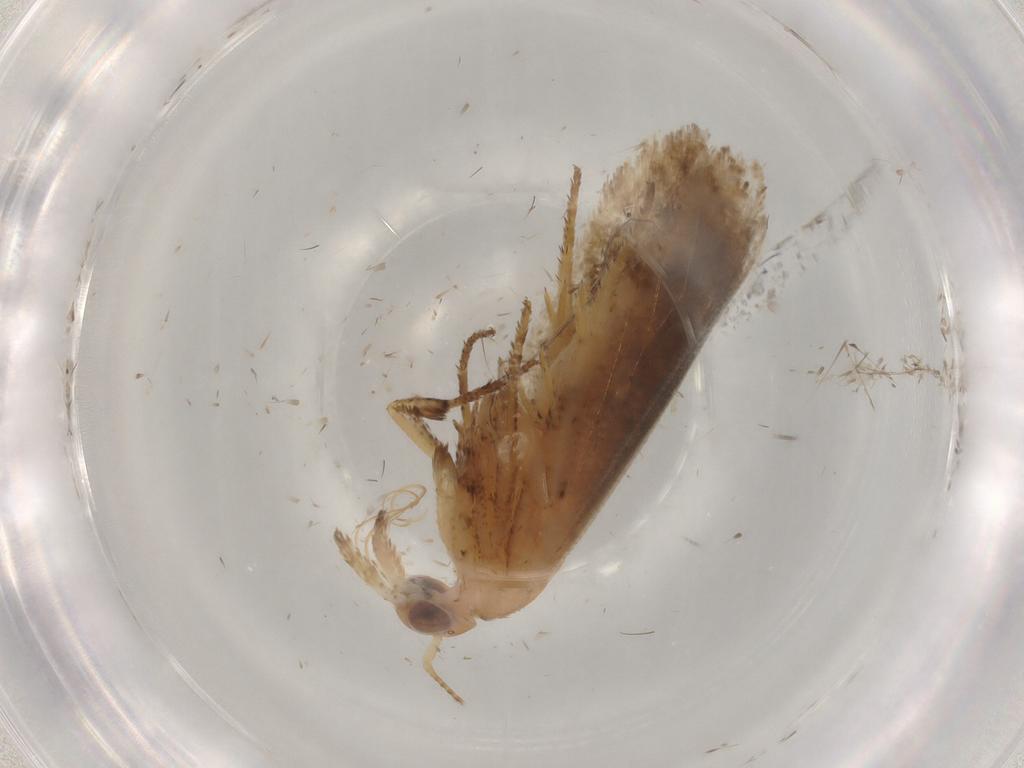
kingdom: Animalia
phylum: Arthropoda
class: Insecta
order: Lepidoptera
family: Ypsolophidae
